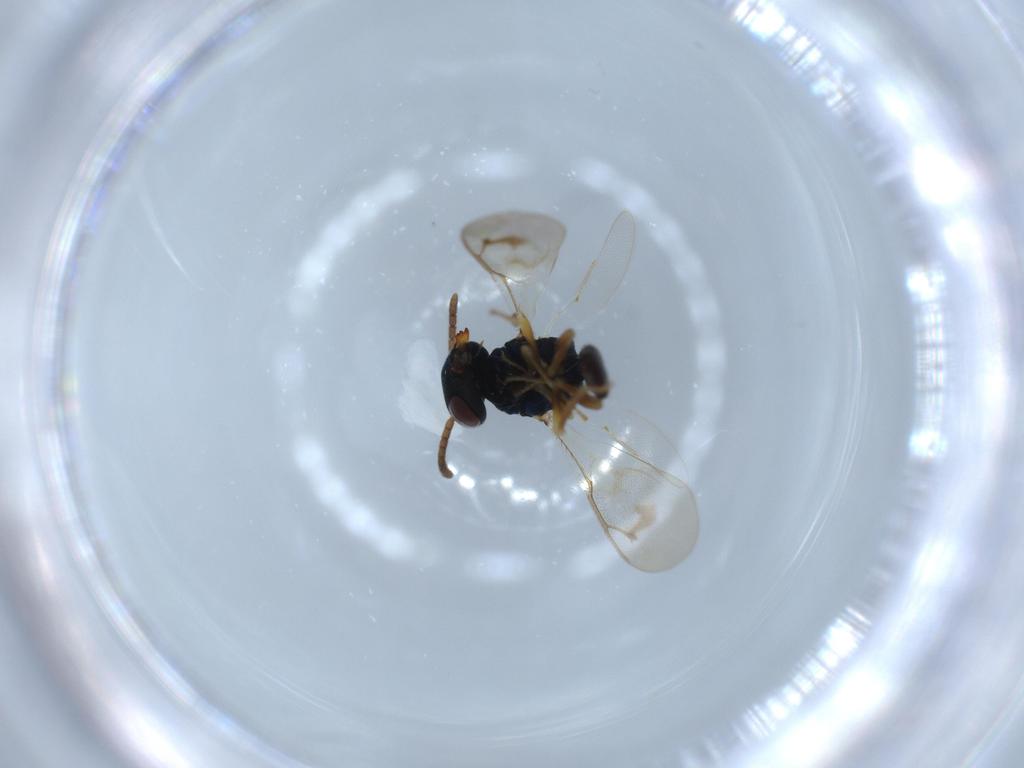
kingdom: Animalia
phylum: Arthropoda
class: Insecta
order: Hymenoptera
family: Pteromalidae
